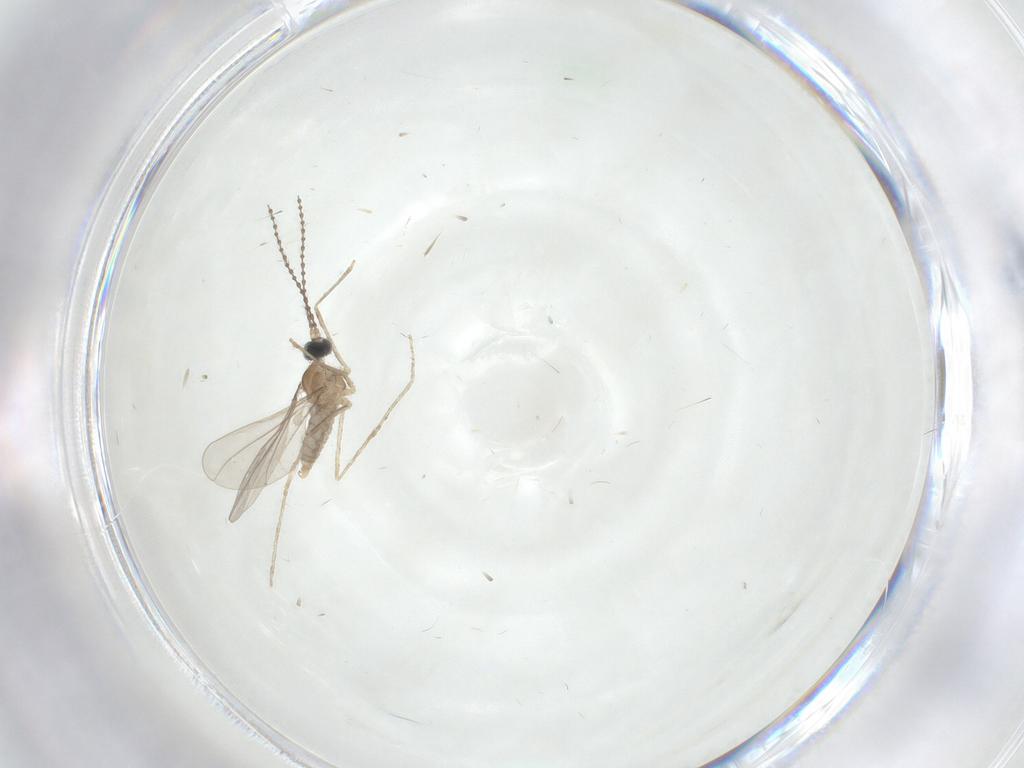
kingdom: Animalia
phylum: Arthropoda
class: Insecta
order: Diptera
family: Cecidomyiidae
